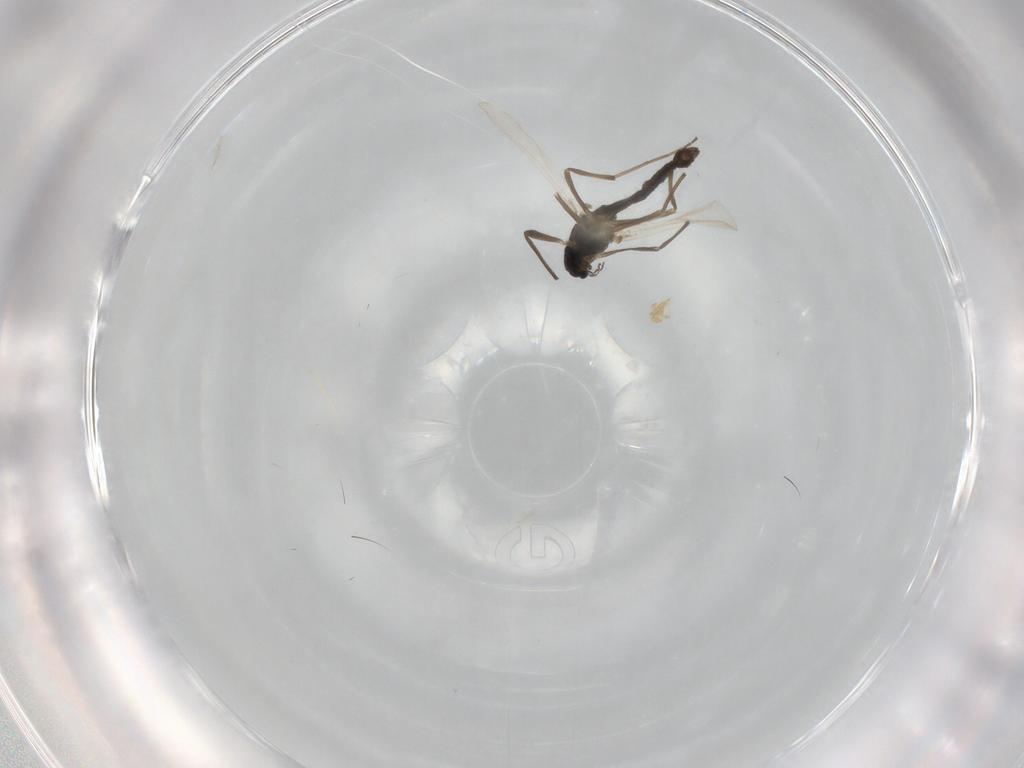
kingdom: Animalia
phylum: Arthropoda
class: Insecta
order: Diptera
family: Chironomidae
